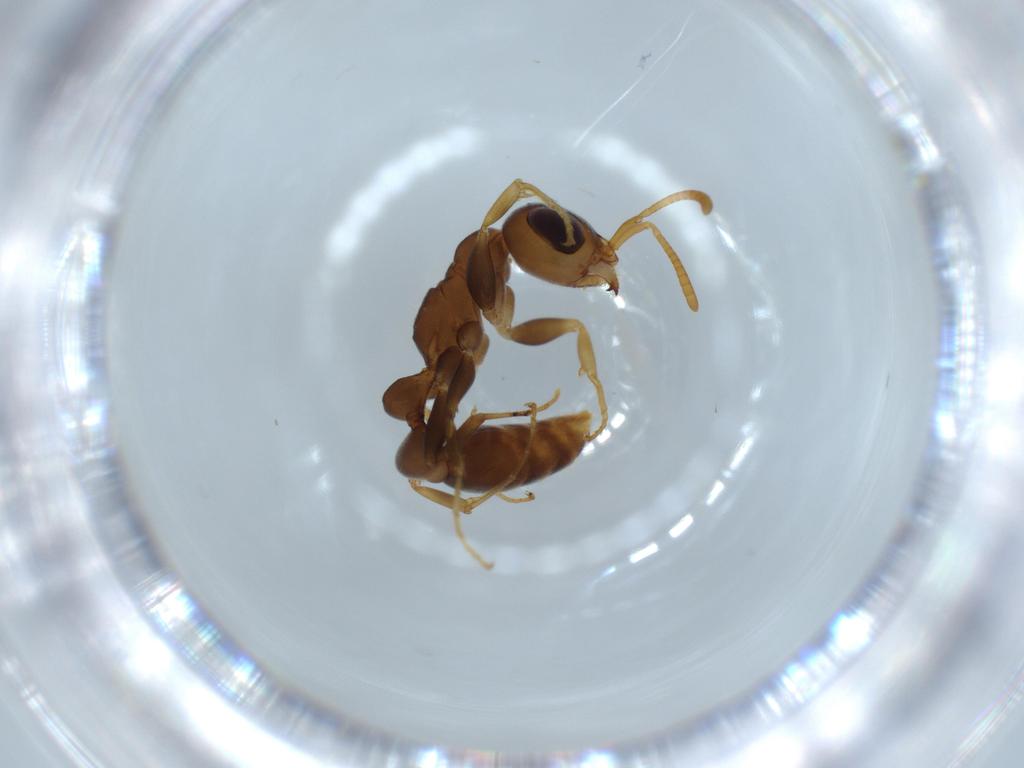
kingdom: Animalia
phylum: Arthropoda
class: Insecta
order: Hymenoptera
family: Formicidae
